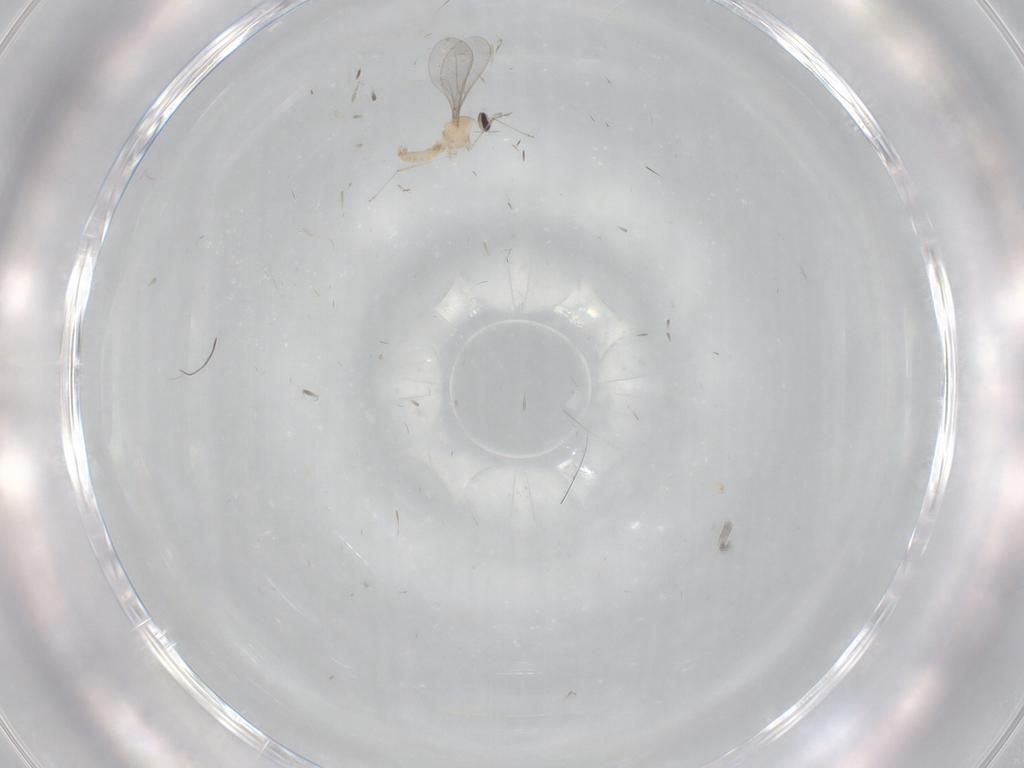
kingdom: Animalia
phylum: Arthropoda
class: Insecta
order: Diptera
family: Cecidomyiidae
